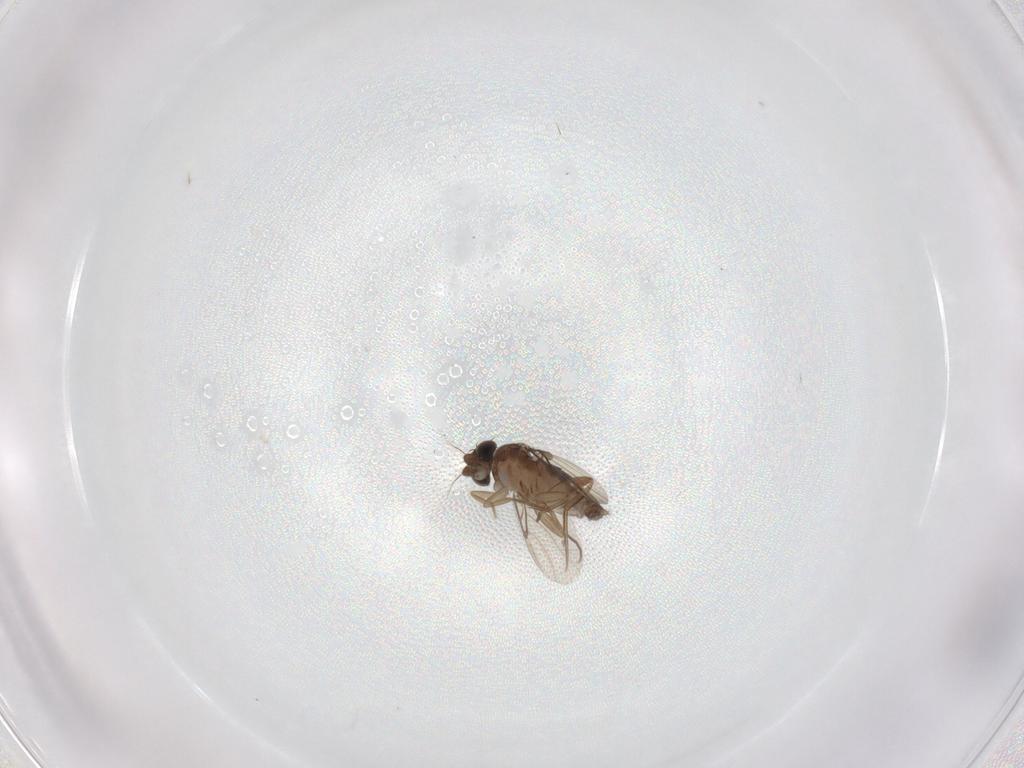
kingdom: Animalia
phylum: Arthropoda
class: Insecta
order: Diptera
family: Phoridae
